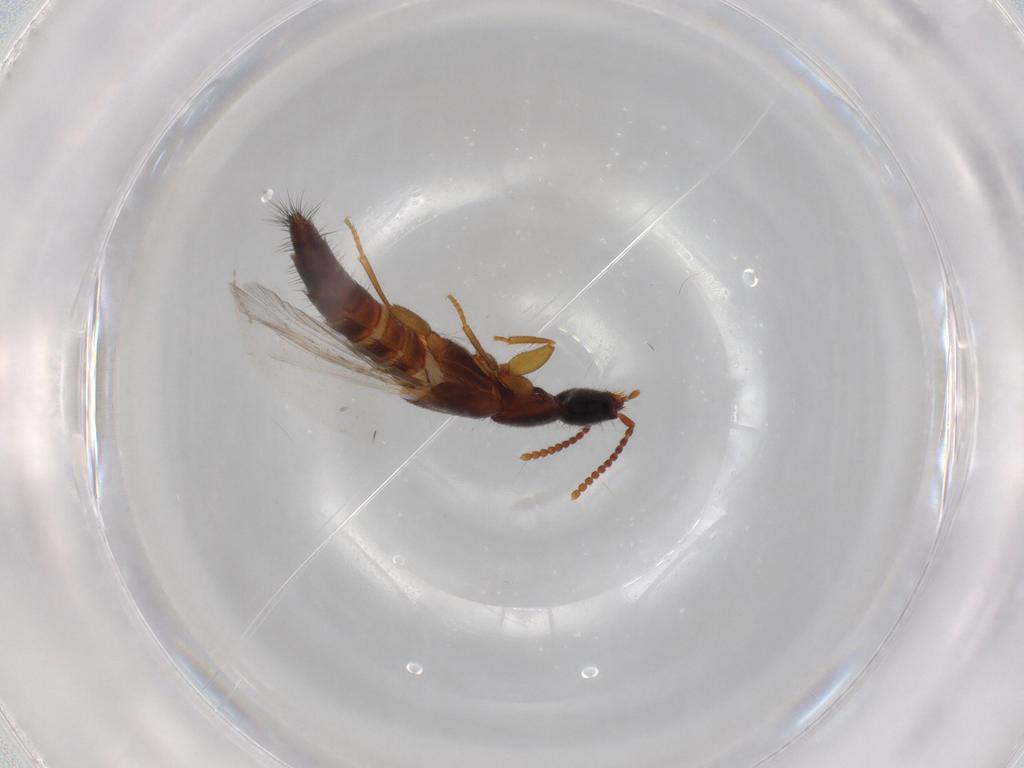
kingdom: Animalia
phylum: Arthropoda
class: Insecta
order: Coleoptera
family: Staphylinidae
